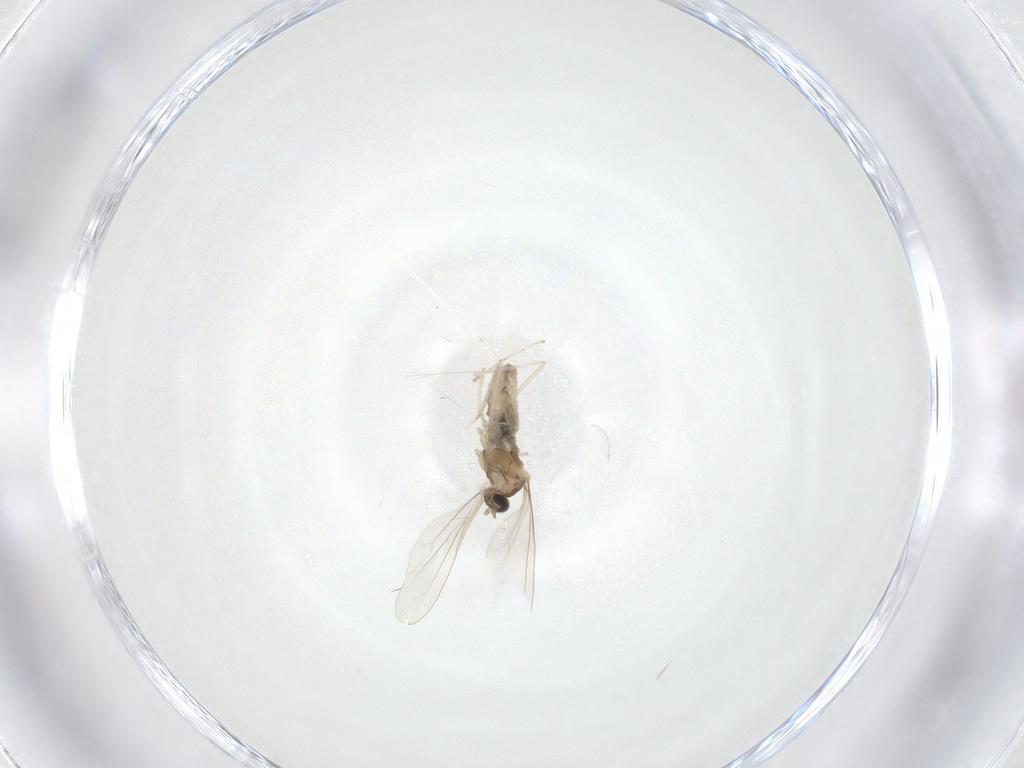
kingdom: Animalia
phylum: Arthropoda
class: Insecta
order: Diptera
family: Cecidomyiidae
